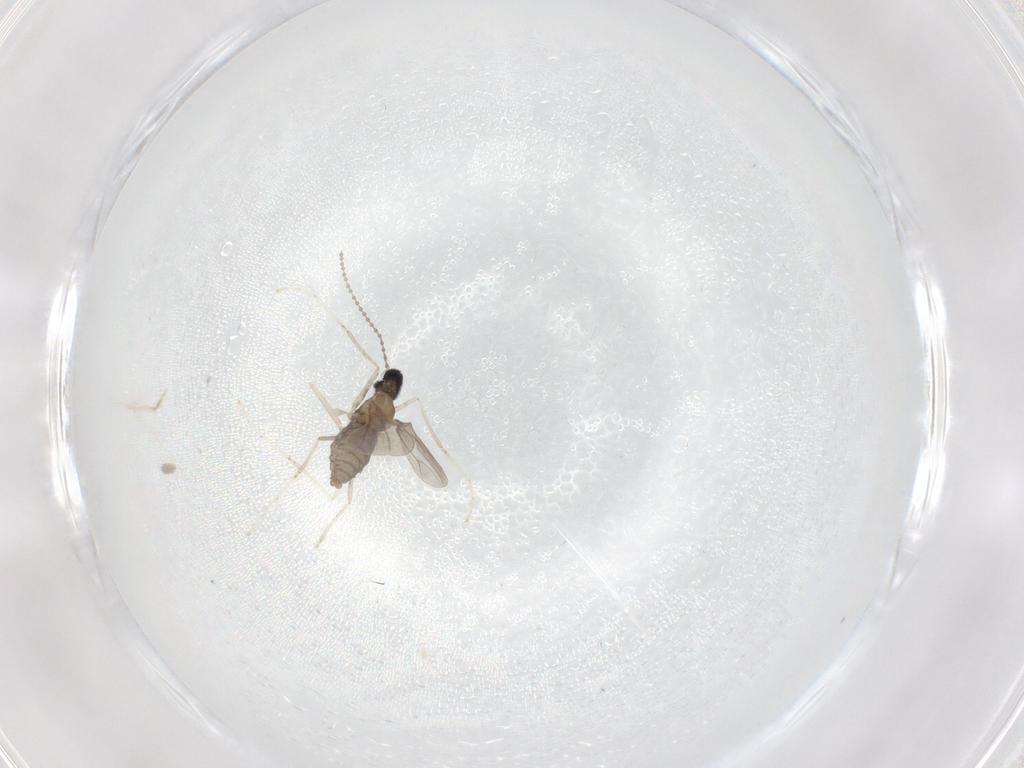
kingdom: Animalia
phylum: Arthropoda
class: Insecta
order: Diptera
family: Cecidomyiidae
